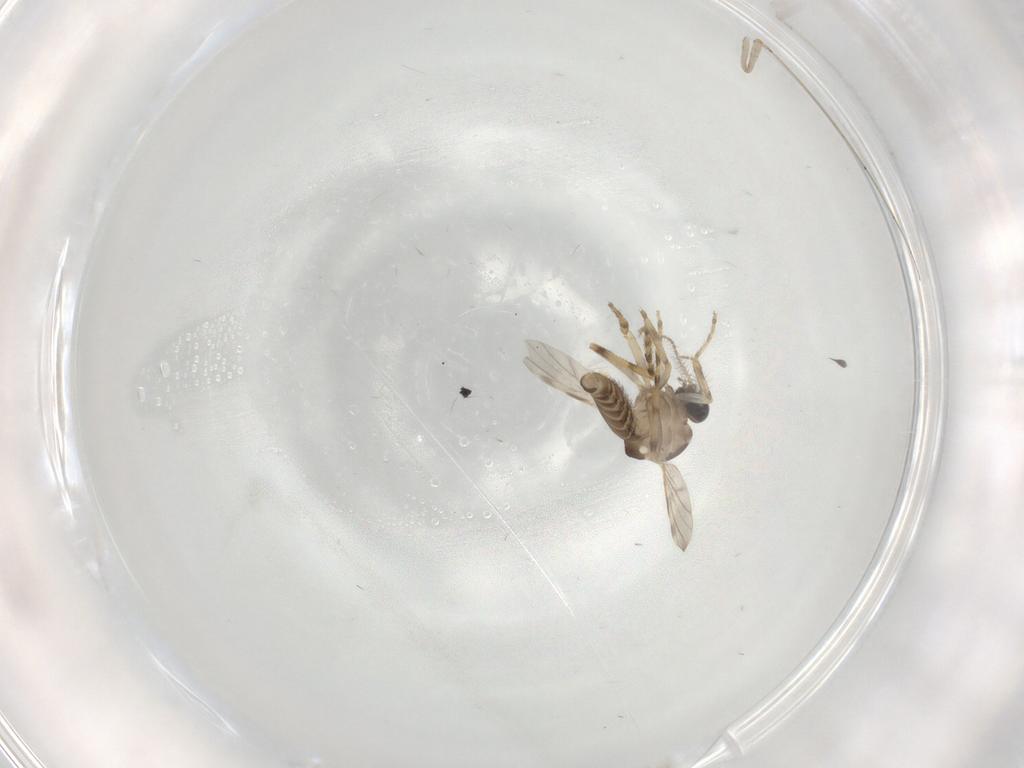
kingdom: Animalia
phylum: Arthropoda
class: Insecta
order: Diptera
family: Ceratopogonidae
